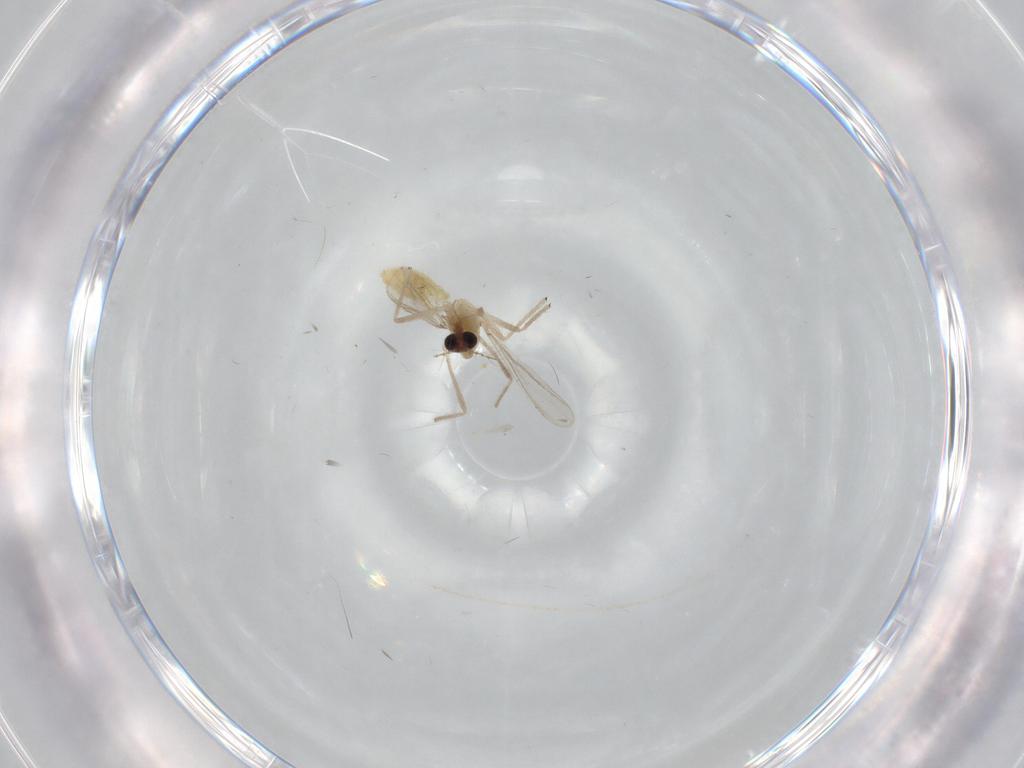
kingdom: Animalia
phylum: Arthropoda
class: Insecta
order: Diptera
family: Chironomidae
